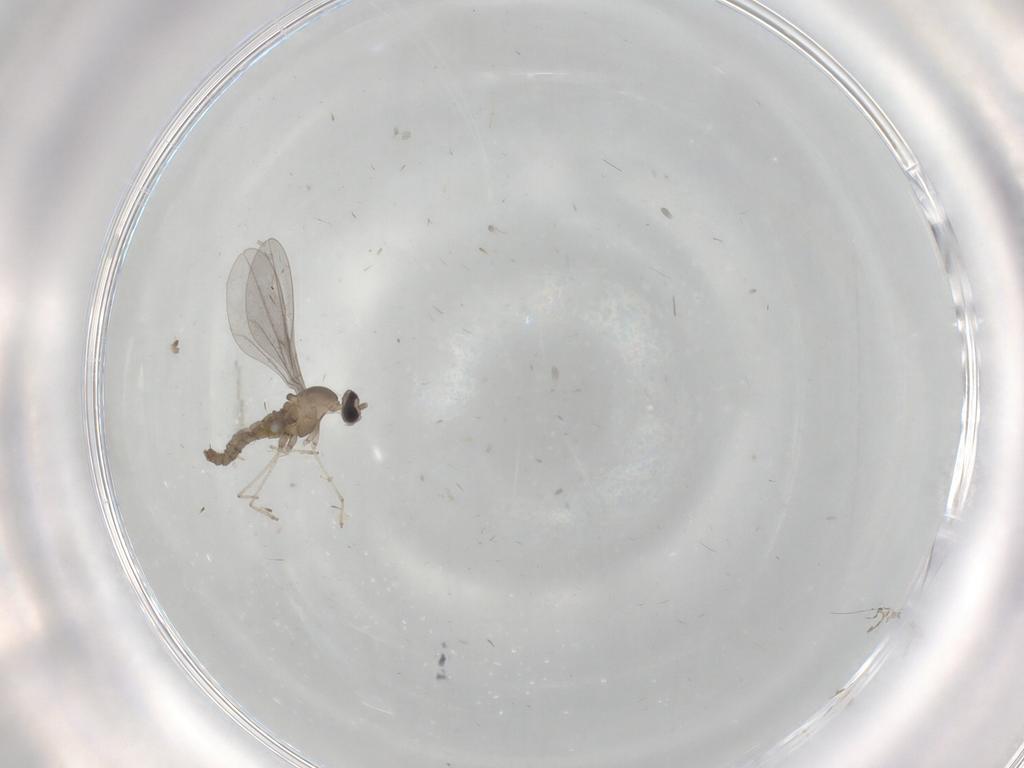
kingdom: Animalia
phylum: Arthropoda
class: Insecta
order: Diptera
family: Cecidomyiidae
